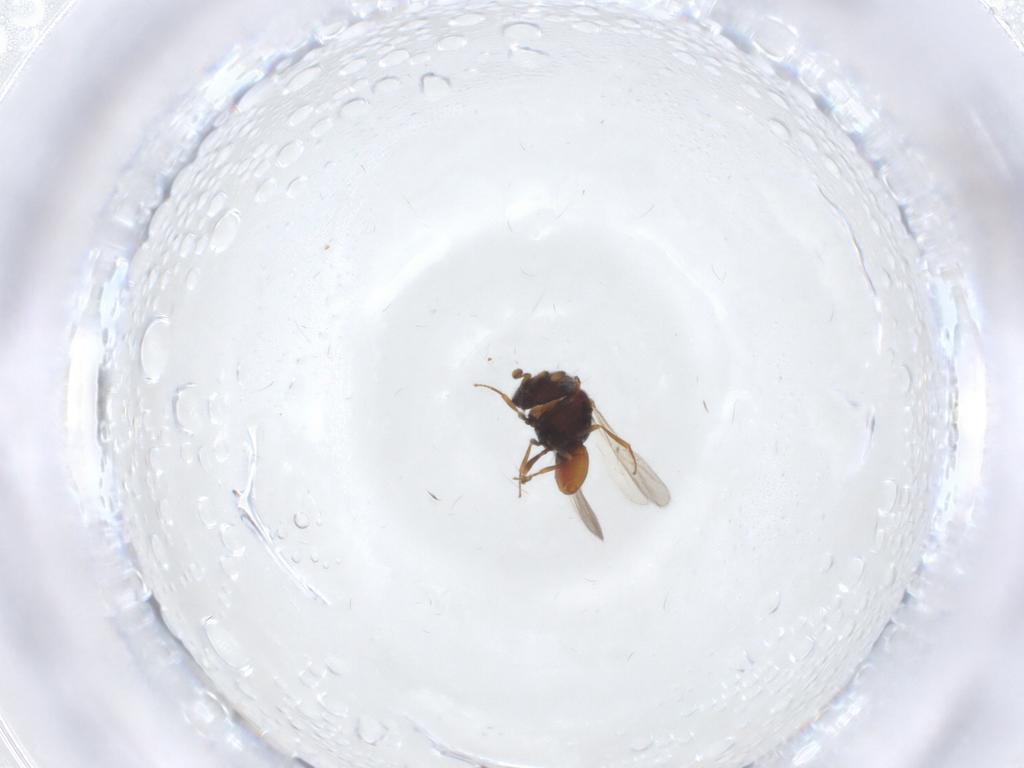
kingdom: Animalia
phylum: Arthropoda
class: Insecta
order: Hymenoptera
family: Scelionidae
